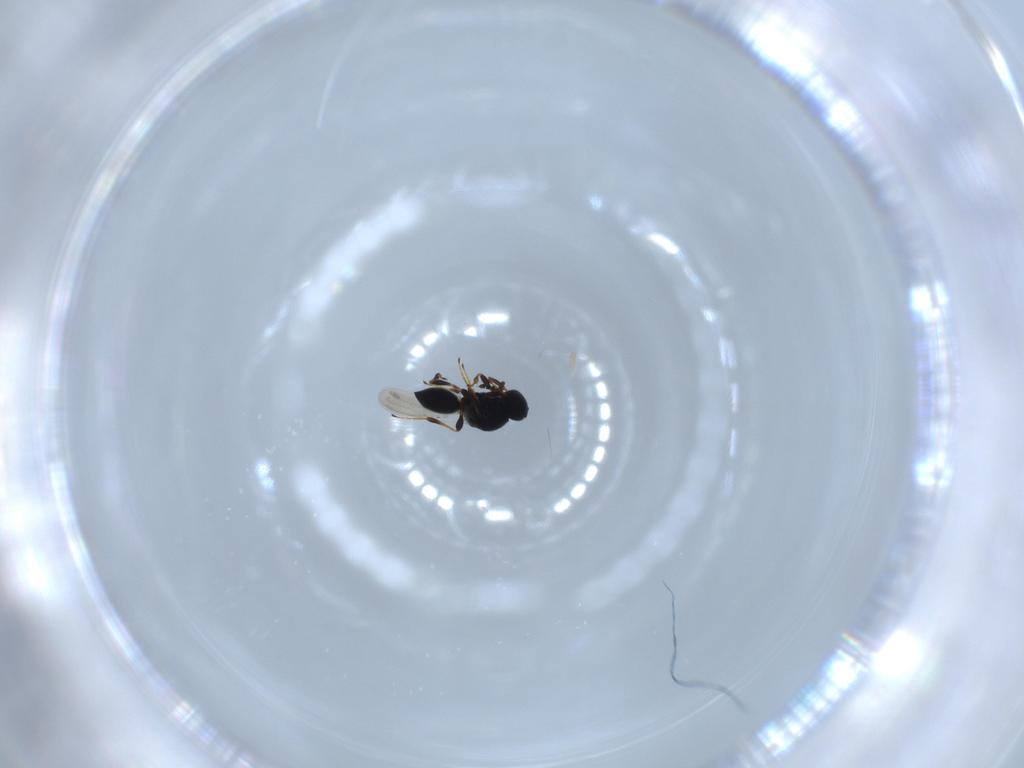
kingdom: Animalia
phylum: Arthropoda
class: Insecta
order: Hymenoptera
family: Platygastridae
